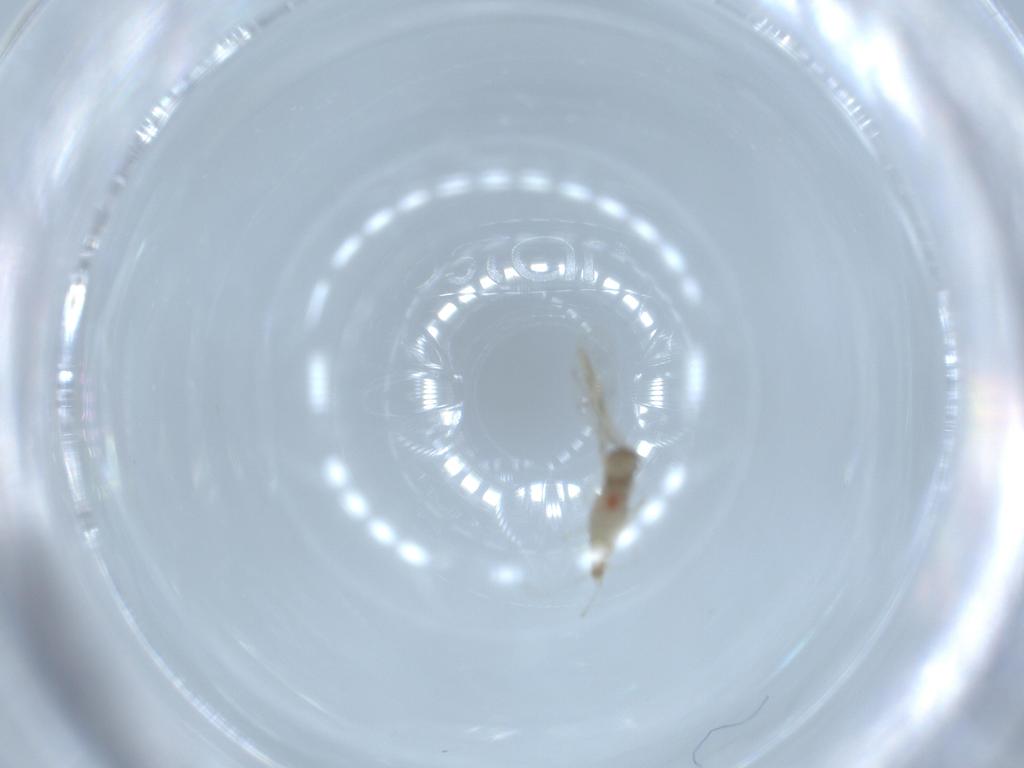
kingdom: Animalia
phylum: Arthropoda
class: Insecta
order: Diptera
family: Cecidomyiidae
